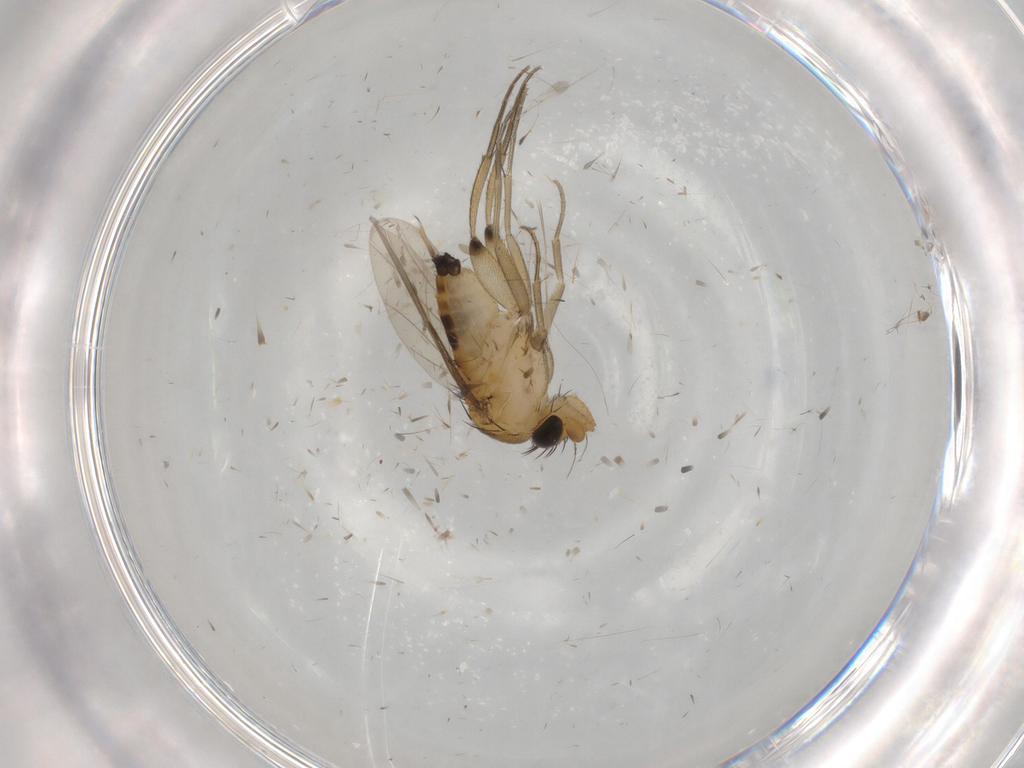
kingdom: Animalia
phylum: Arthropoda
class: Insecta
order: Diptera
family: Phoridae
